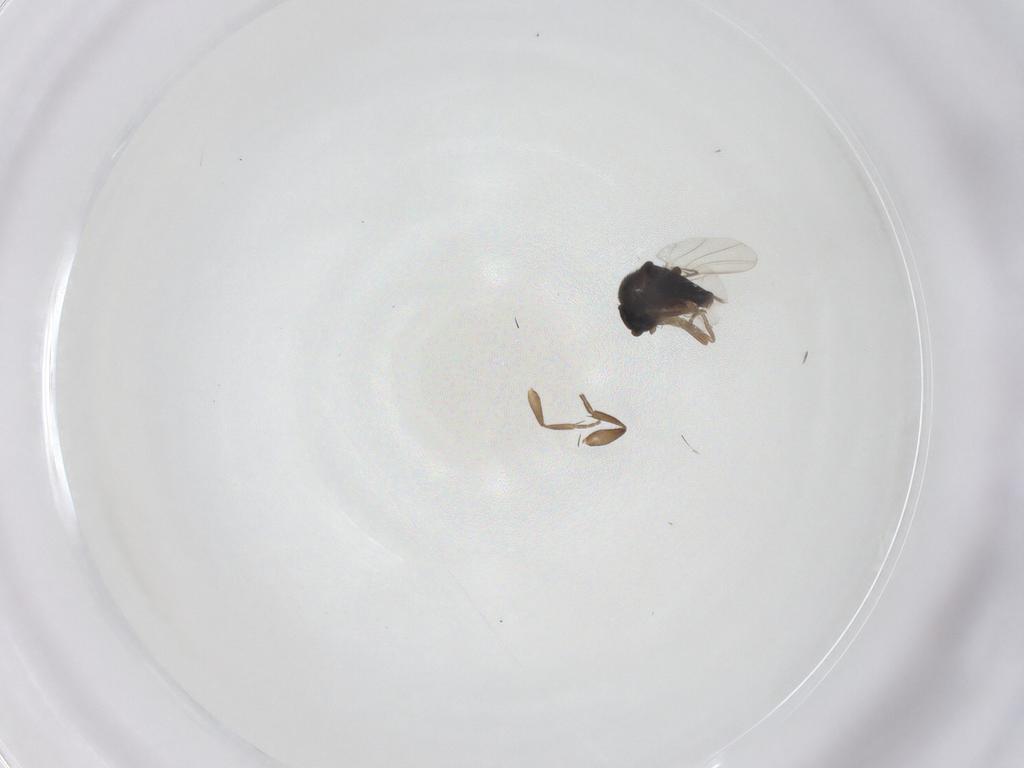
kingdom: Animalia
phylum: Arthropoda
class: Insecta
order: Diptera
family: Phoridae
